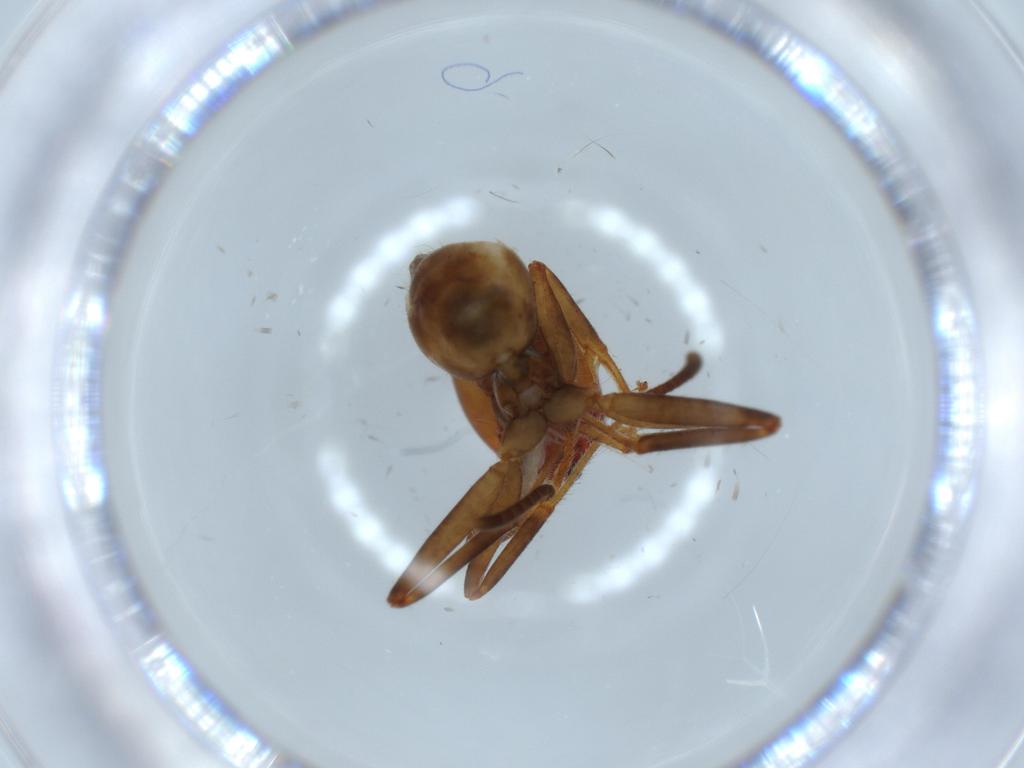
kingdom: Animalia
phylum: Arthropoda
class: Insecta
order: Hymenoptera
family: Formicidae
